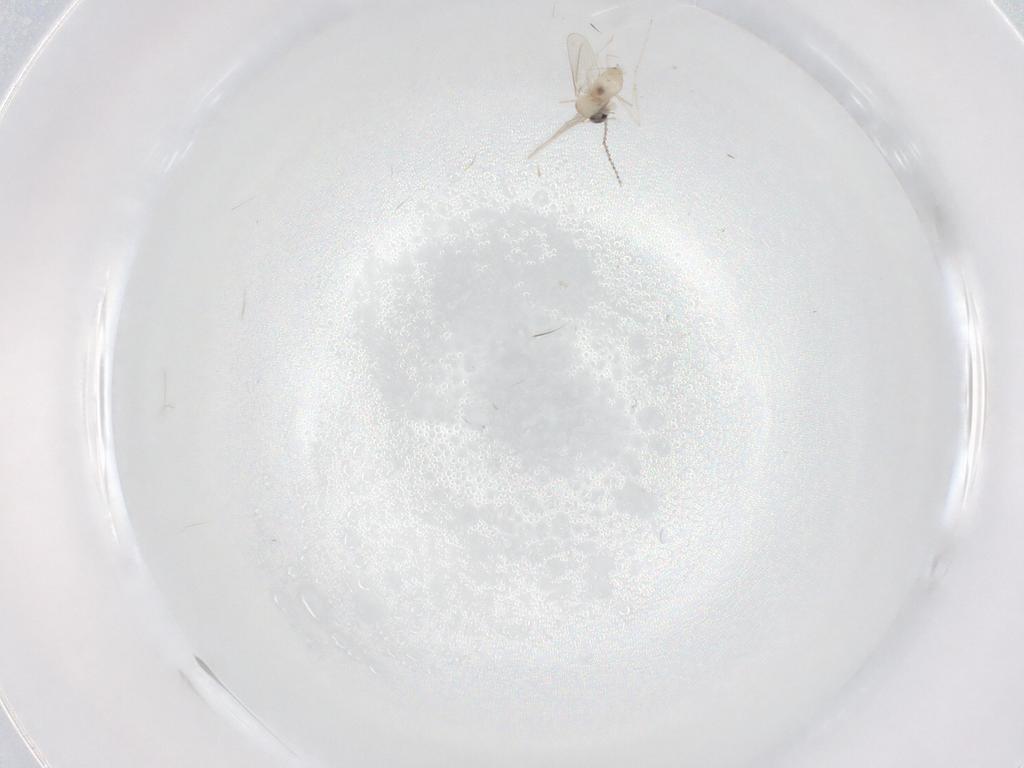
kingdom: Animalia
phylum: Arthropoda
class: Insecta
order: Diptera
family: Chironomidae
